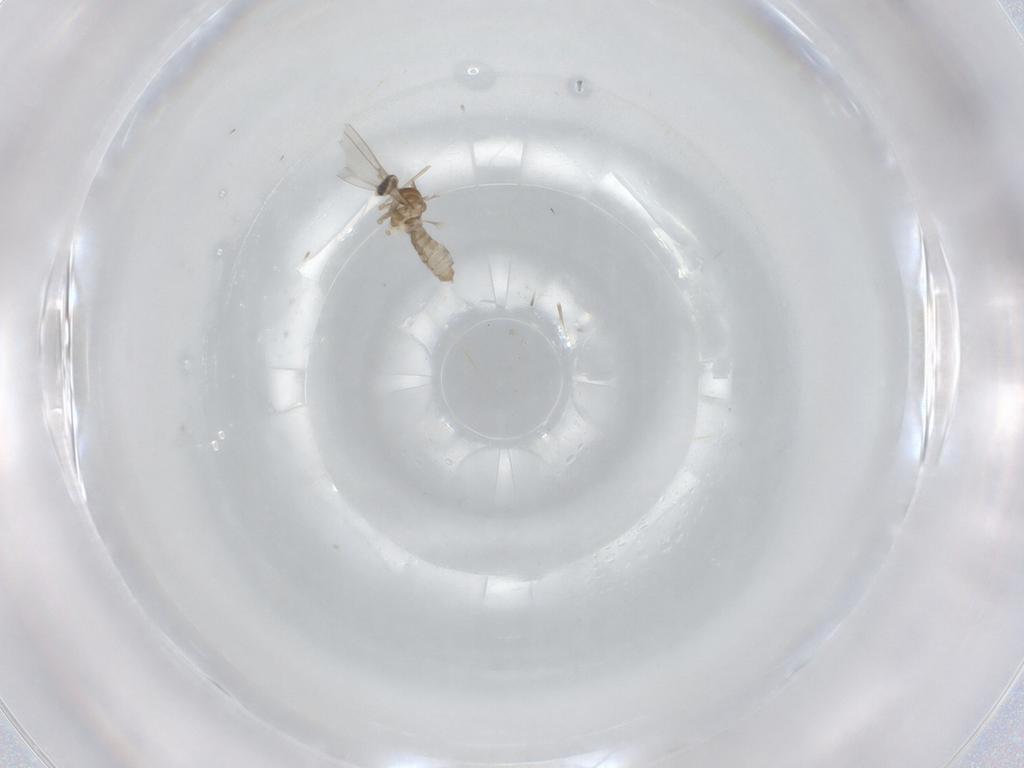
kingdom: Animalia
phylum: Arthropoda
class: Insecta
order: Diptera
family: Cecidomyiidae
